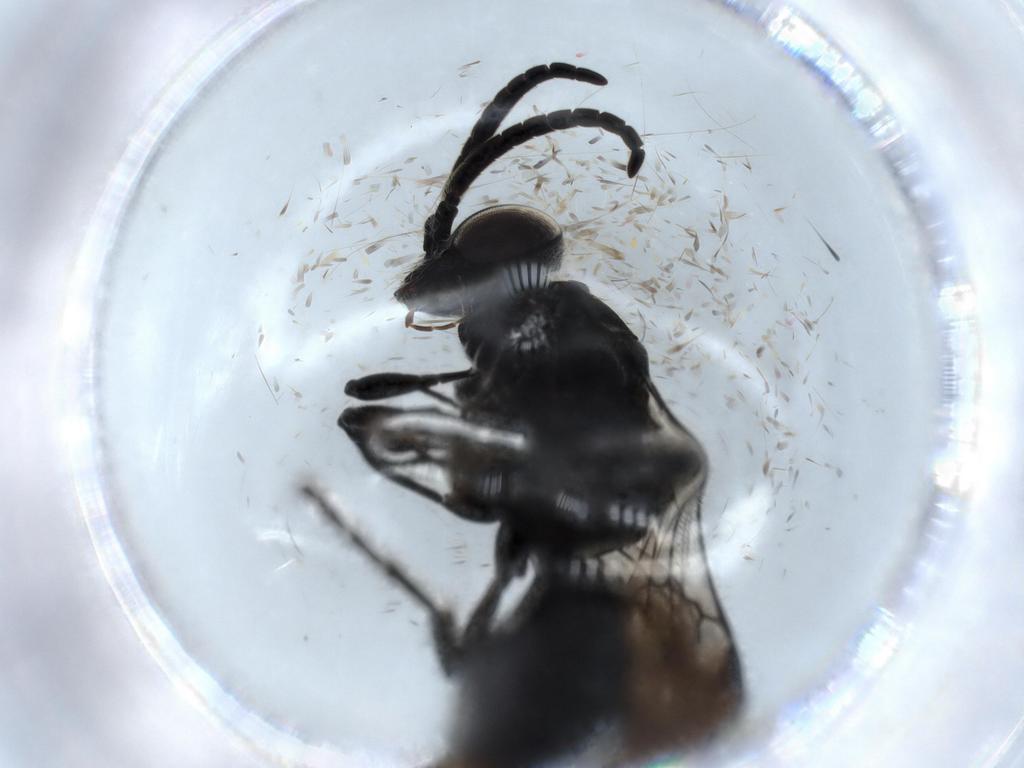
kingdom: Animalia
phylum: Arthropoda
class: Insecta
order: Hymenoptera
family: Tiphiidae
